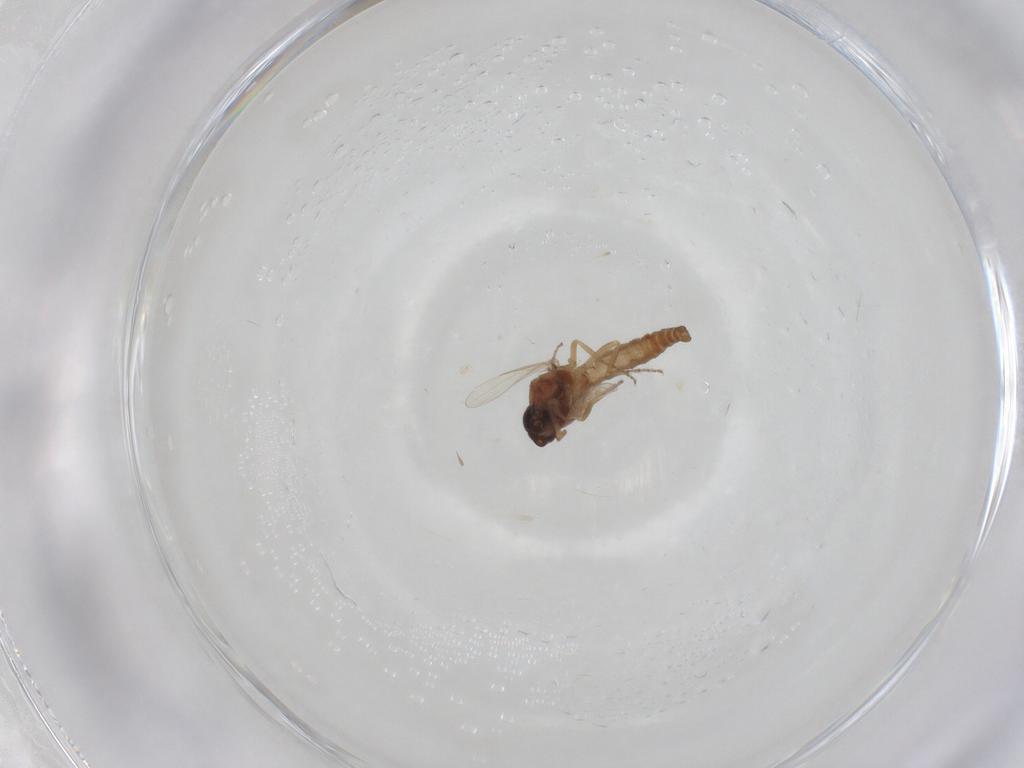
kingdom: Animalia
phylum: Arthropoda
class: Insecta
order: Diptera
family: Ceratopogonidae
